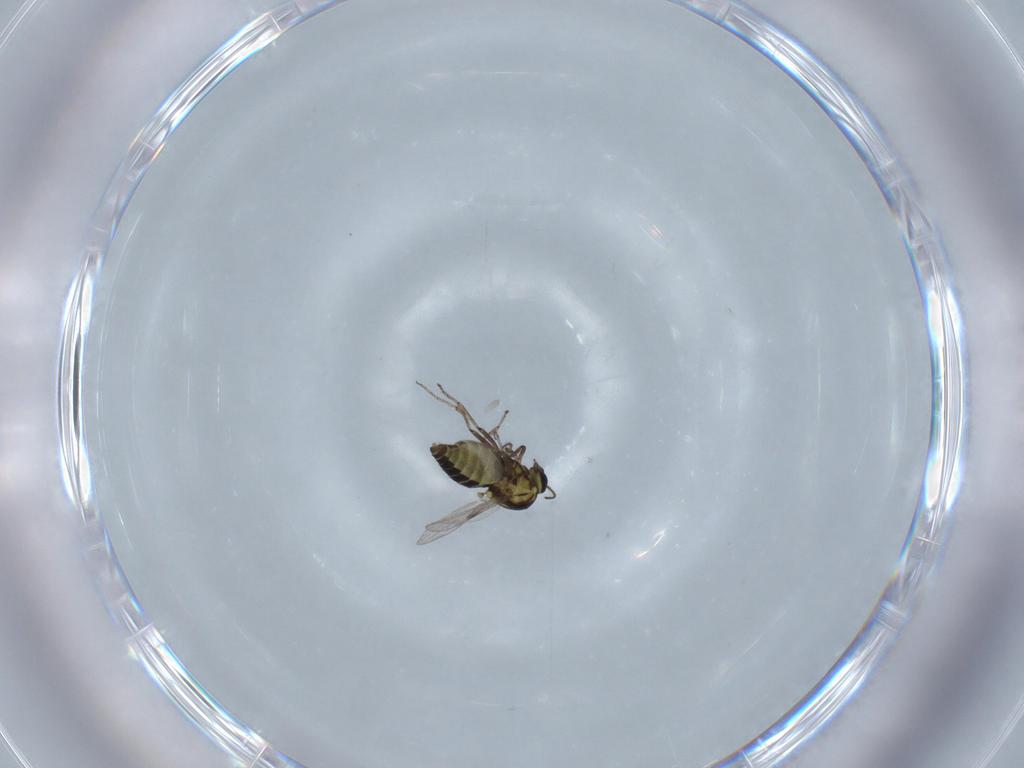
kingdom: Animalia
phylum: Arthropoda
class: Insecta
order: Diptera
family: Ceratopogonidae
